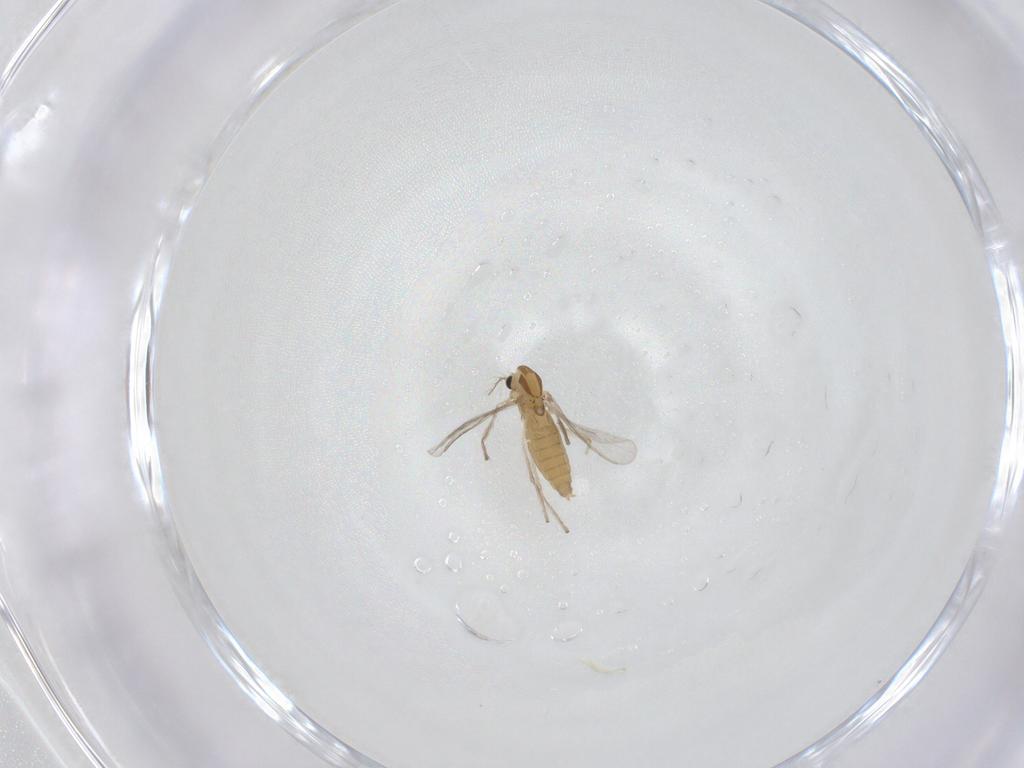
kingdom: Animalia
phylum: Arthropoda
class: Insecta
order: Diptera
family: Chironomidae
